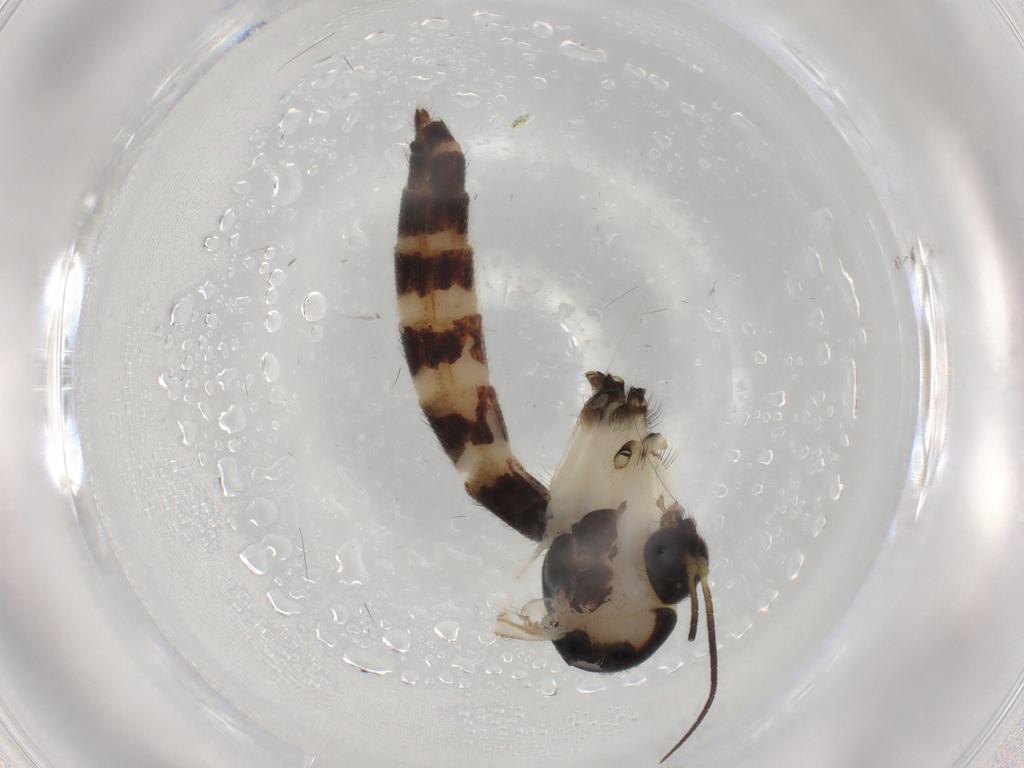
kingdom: Animalia
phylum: Arthropoda
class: Insecta
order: Diptera
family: Tachinidae
